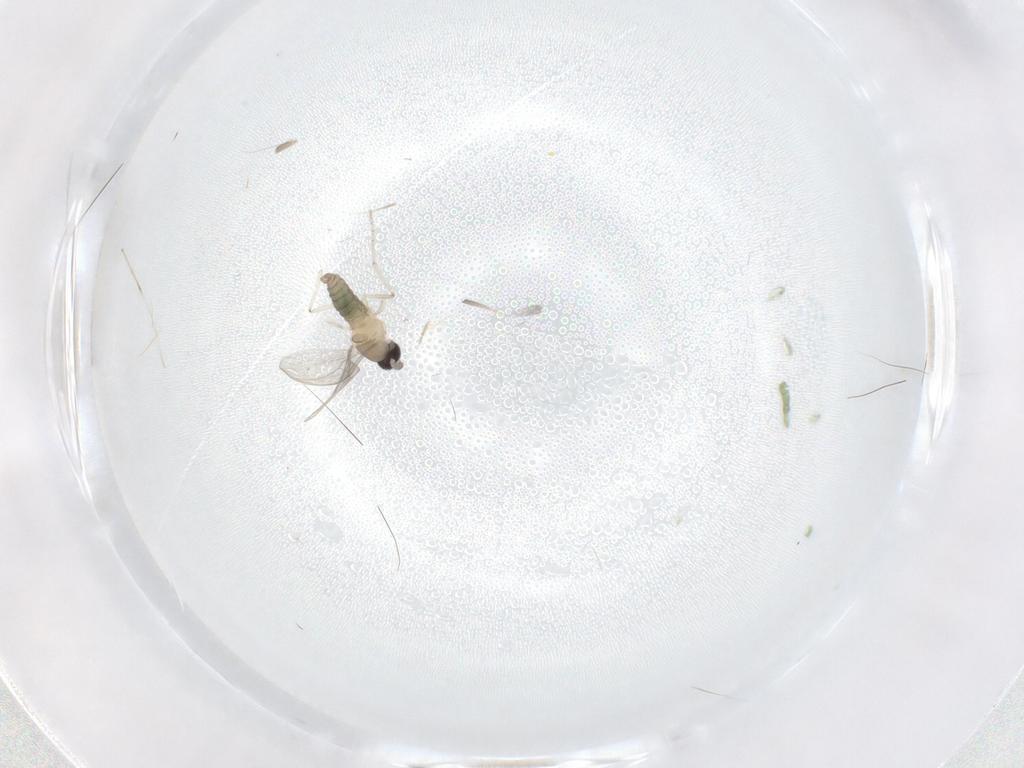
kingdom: Animalia
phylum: Arthropoda
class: Insecta
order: Diptera
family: Cecidomyiidae
